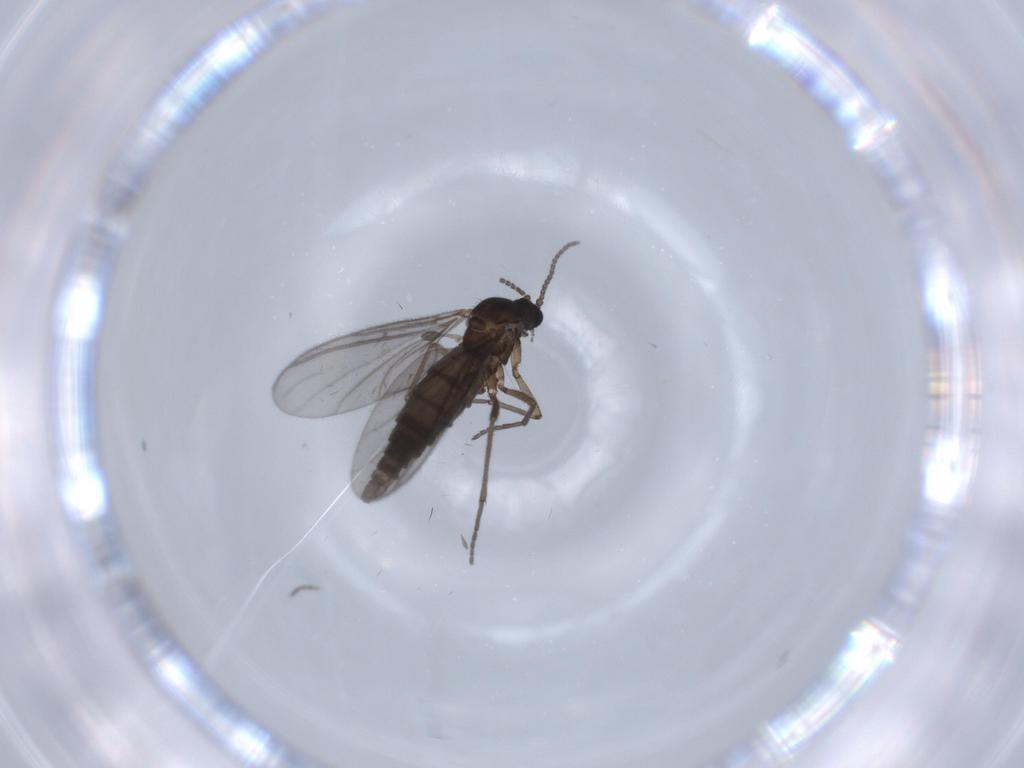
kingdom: Animalia
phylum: Arthropoda
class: Insecta
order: Diptera
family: Sciaridae
